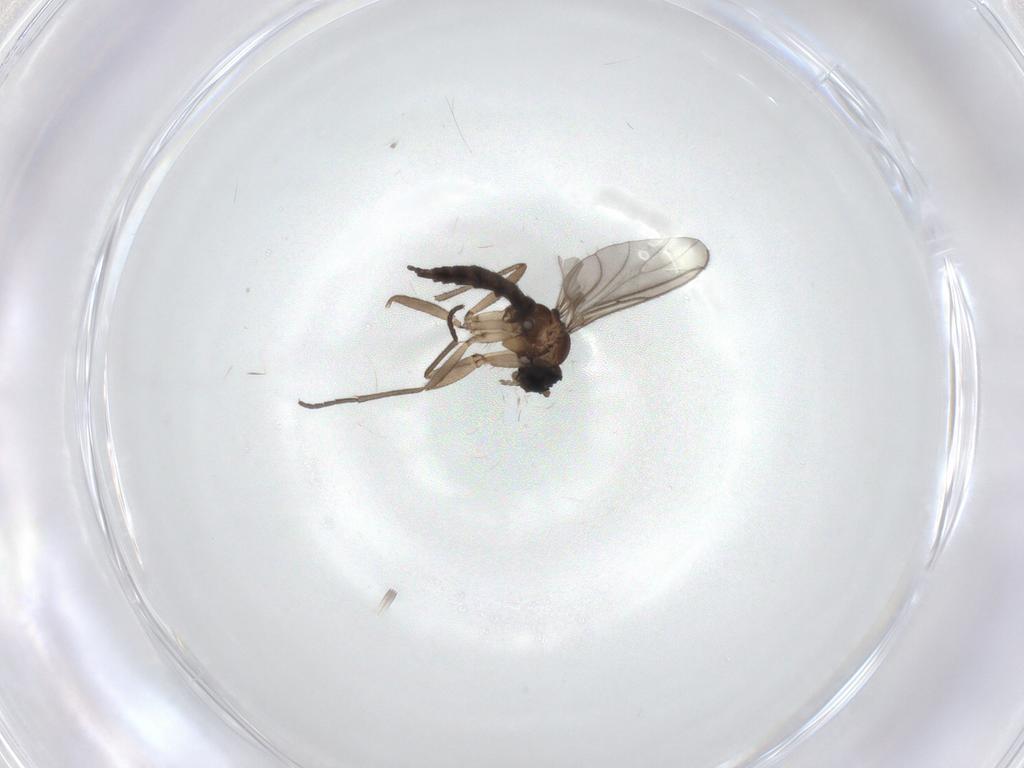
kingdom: Animalia
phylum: Arthropoda
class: Insecta
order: Diptera
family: Sciaridae
